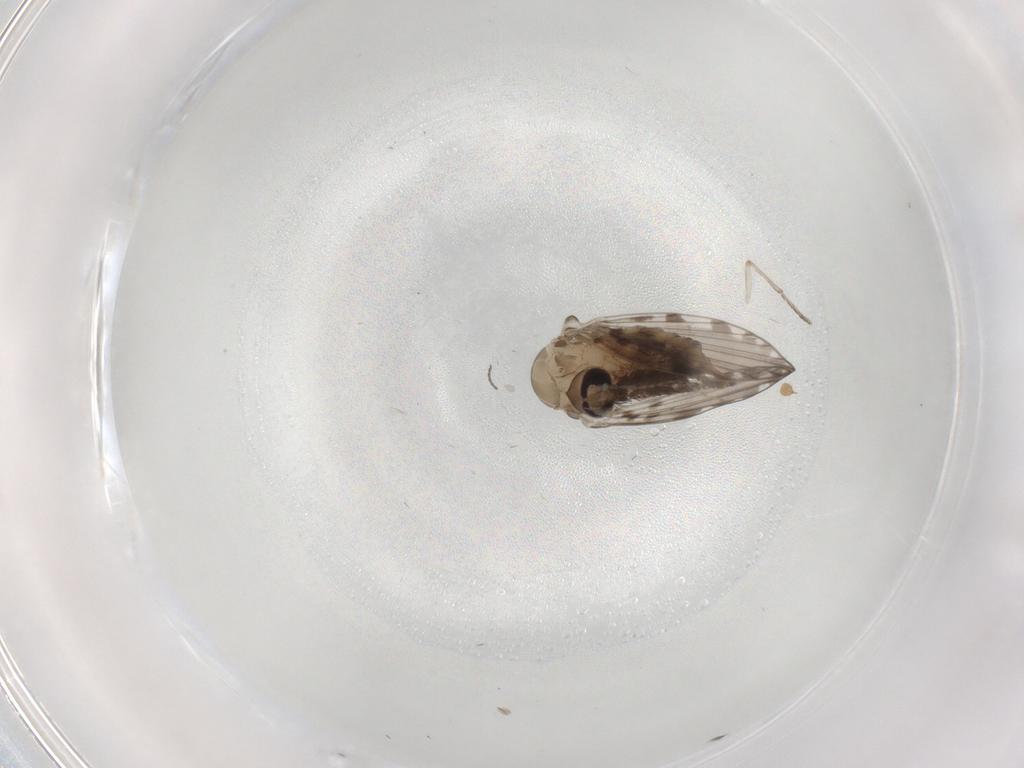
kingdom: Animalia
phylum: Arthropoda
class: Insecta
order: Diptera
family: Psychodidae
